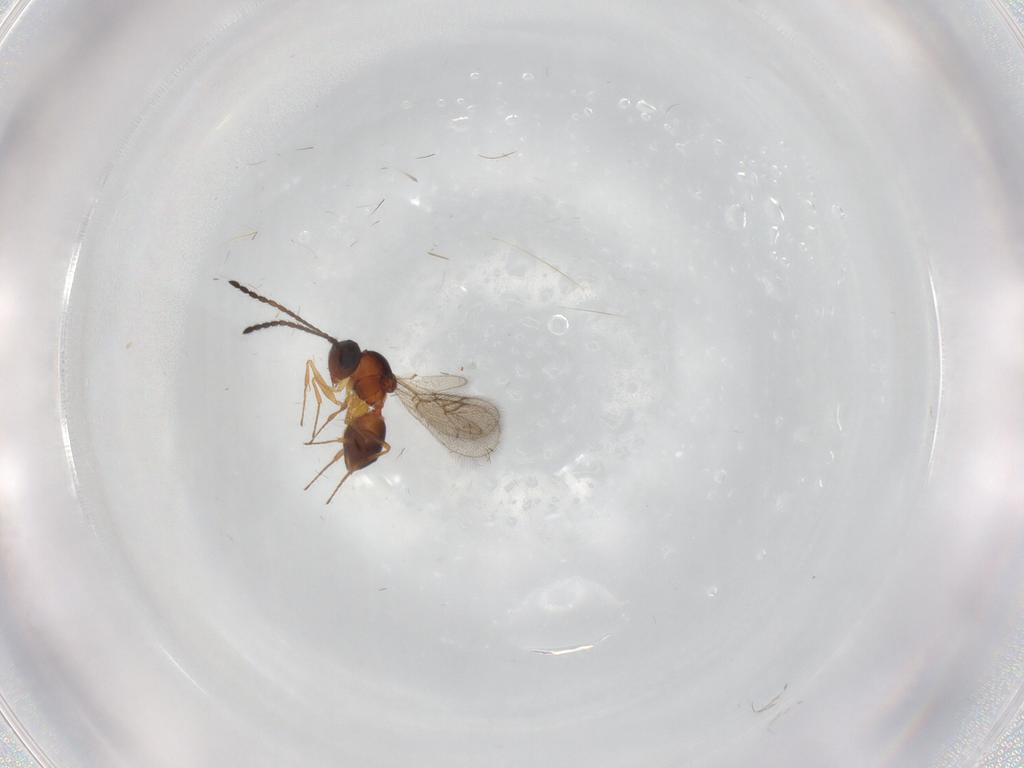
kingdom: Animalia
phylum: Arthropoda
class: Insecta
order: Hymenoptera
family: Figitidae
